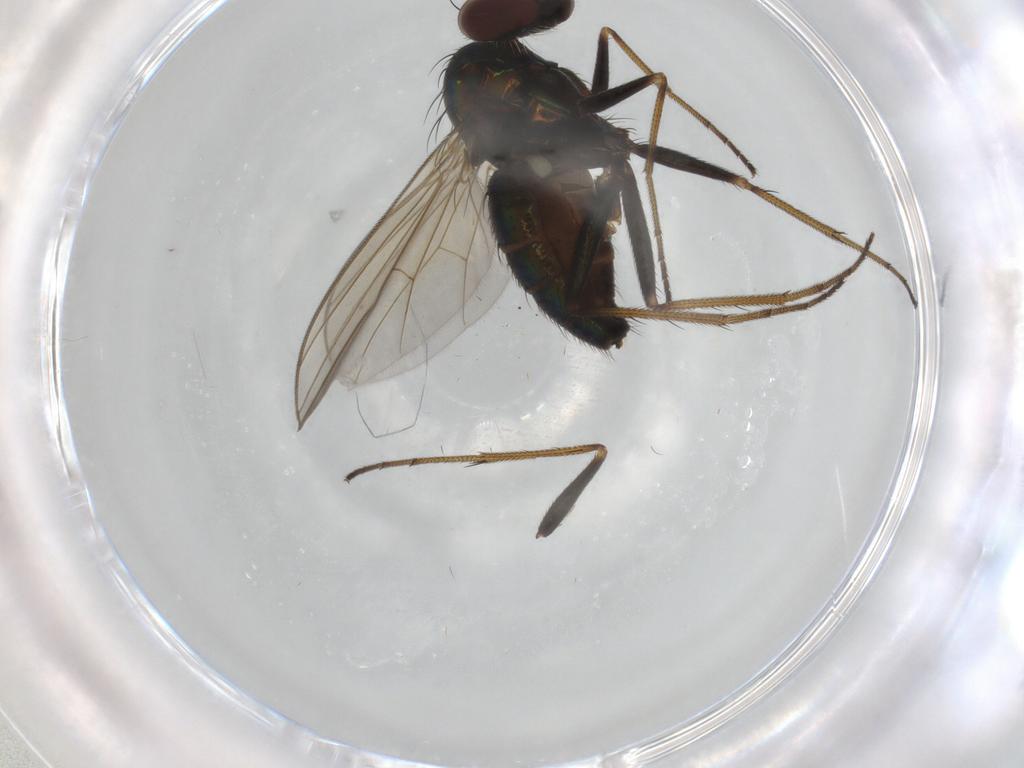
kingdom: Animalia
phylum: Arthropoda
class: Insecta
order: Diptera
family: Dolichopodidae
